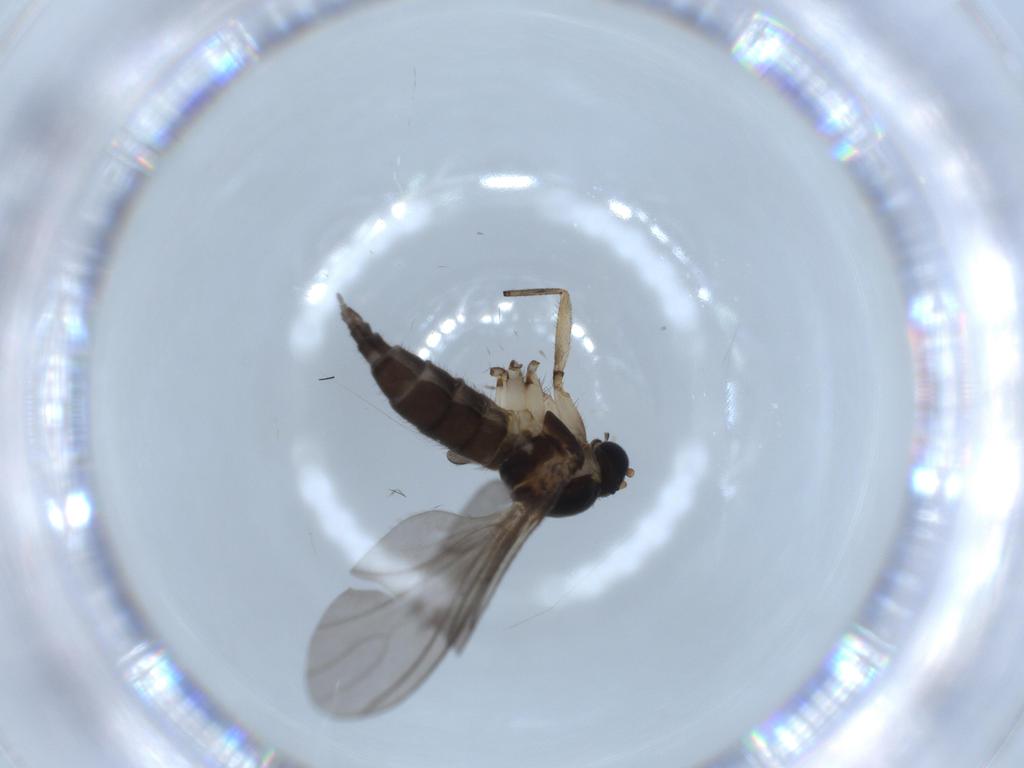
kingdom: Animalia
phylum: Arthropoda
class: Insecta
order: Diptera
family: Sciaridae
